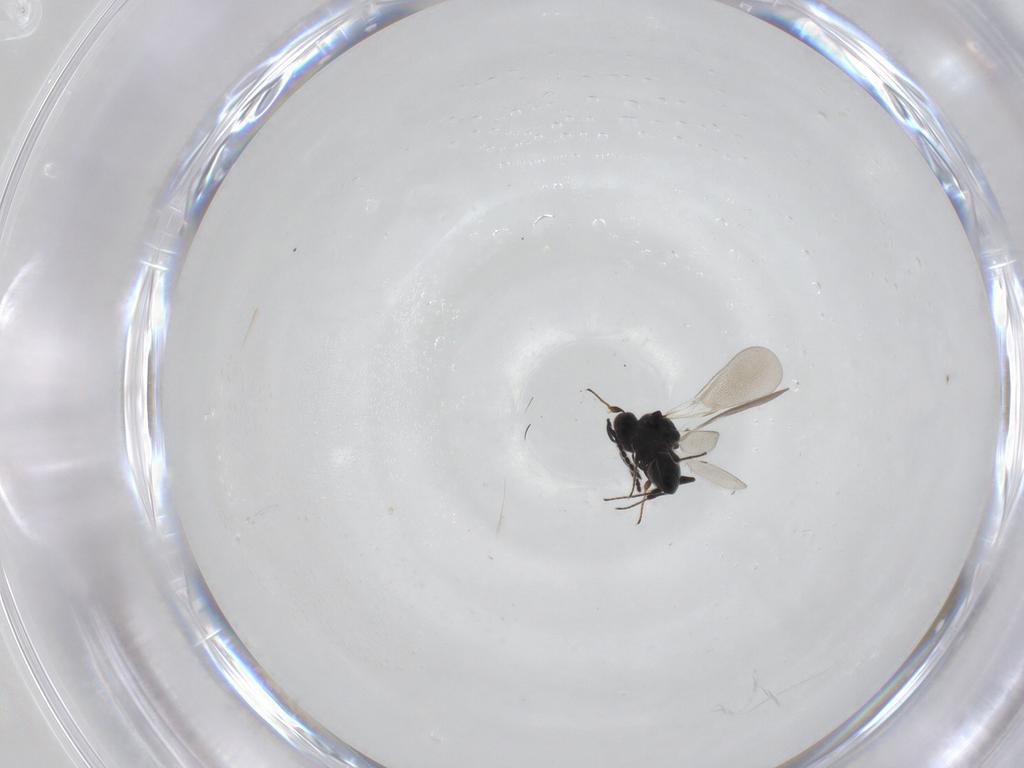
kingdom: Animalia
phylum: Arthropoda
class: Insecta
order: Hymenoptera
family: Platygastridae
